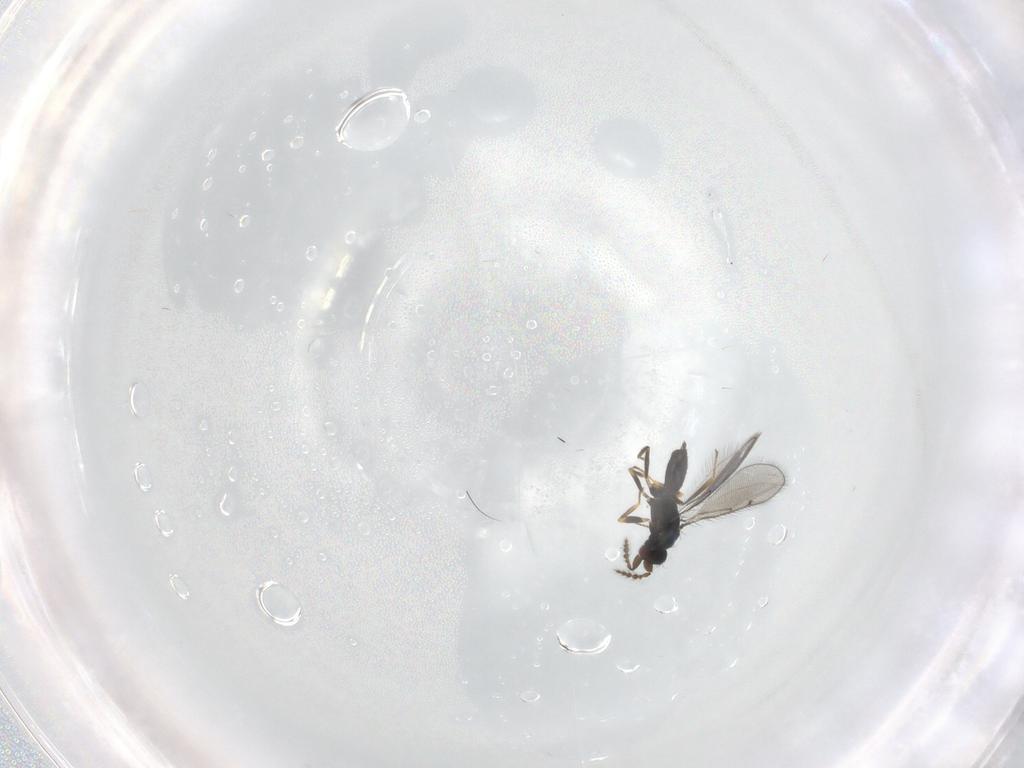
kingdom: Animalia
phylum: Arthropoda
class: Insecta
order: Hymenoptera
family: Eulophidae
